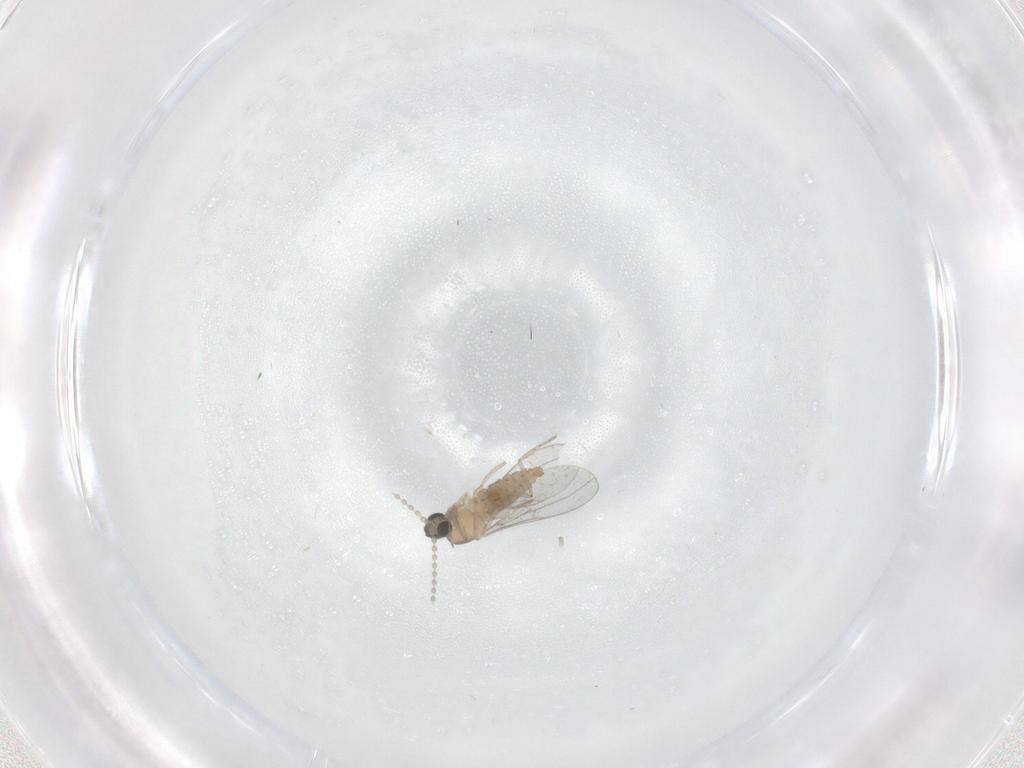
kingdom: Animalia
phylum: Arthropoda
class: Insecta
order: Diptera
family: Cecidomyiidae
